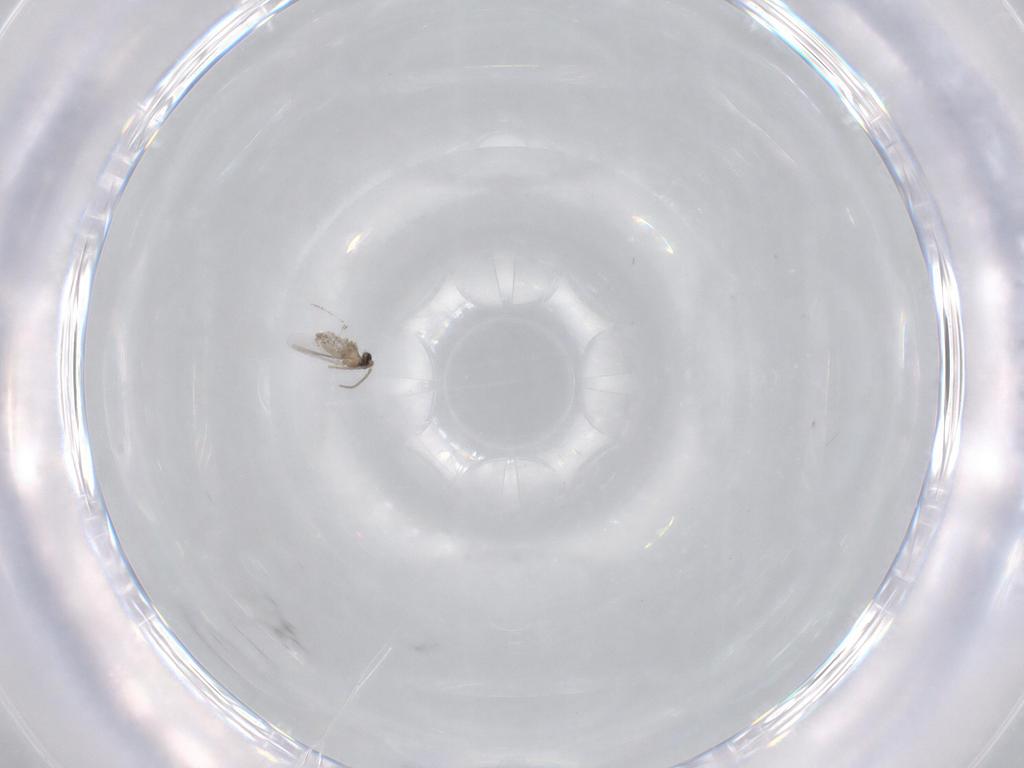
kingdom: Animalia
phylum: Arthropoda
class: Insecta
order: Diptera
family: Cecidomyiidae
